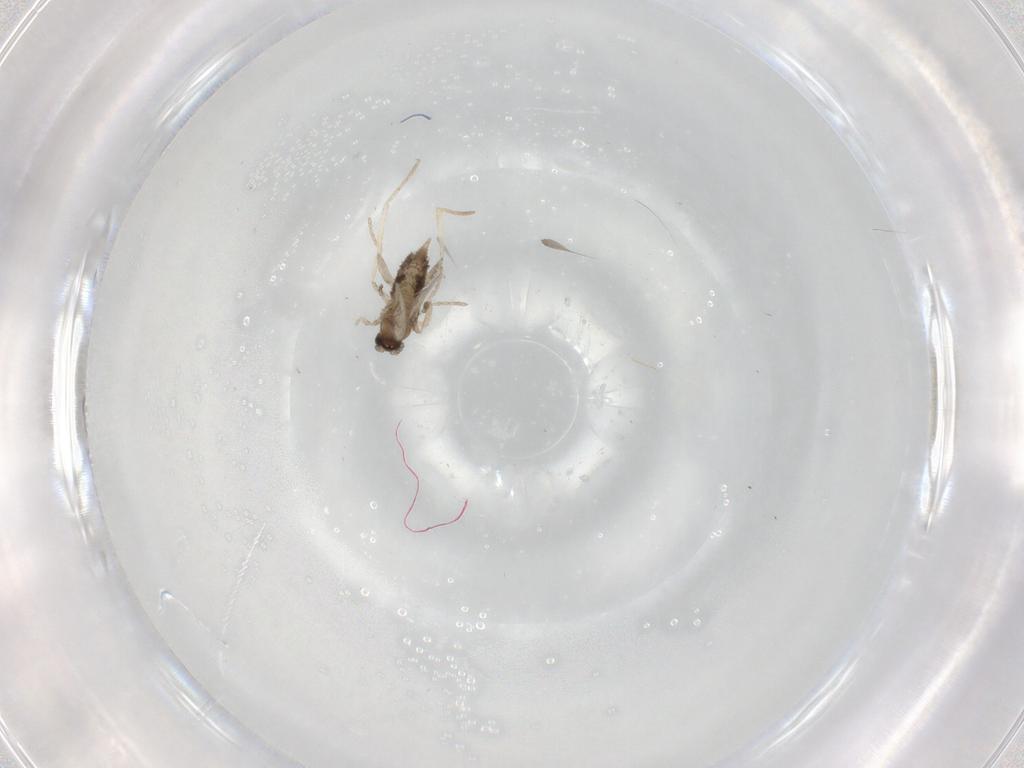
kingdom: Animalia
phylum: Arthropoda
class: Insecta
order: Diptera
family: Cecidomyiidae
